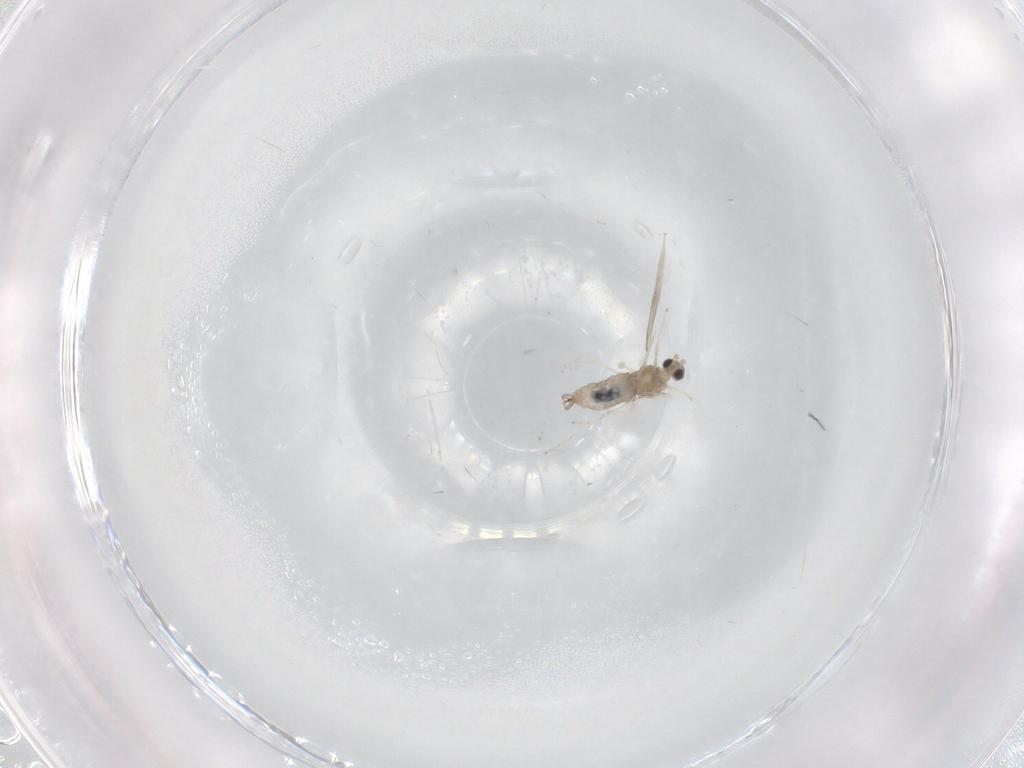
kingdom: Animalia
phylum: Arthropoda
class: Insecta
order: Diptera
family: Cecidomyiidae
